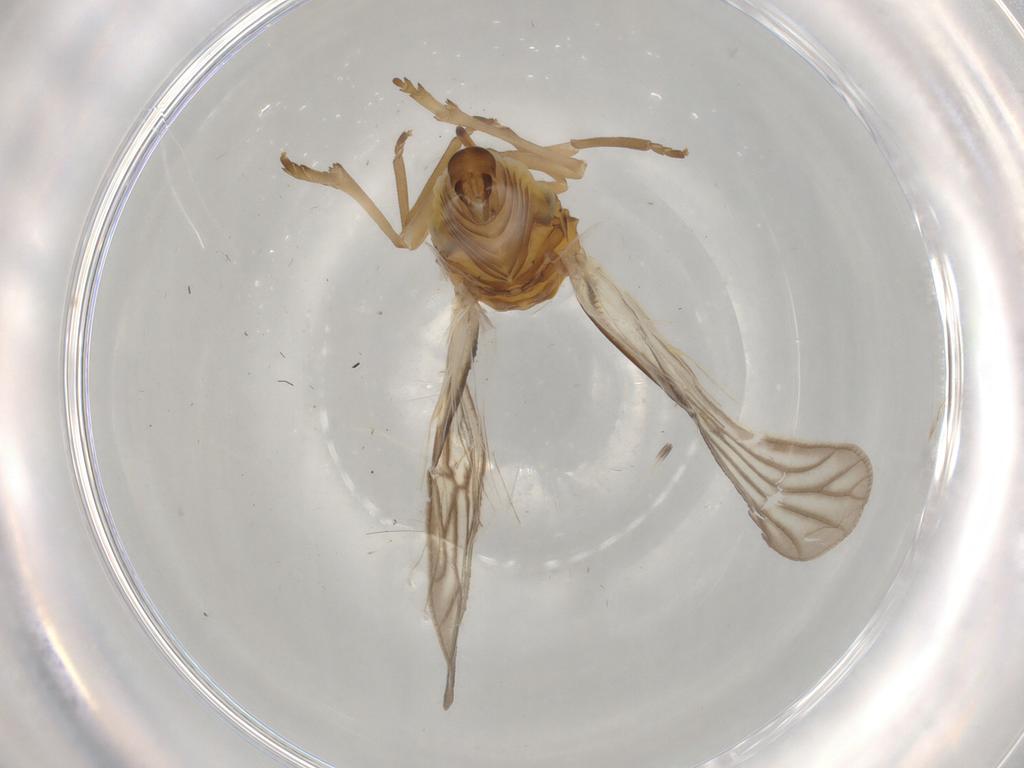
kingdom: Animalia
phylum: Arthropoda
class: Insecta
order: Hemiptera
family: Meenoplidae
